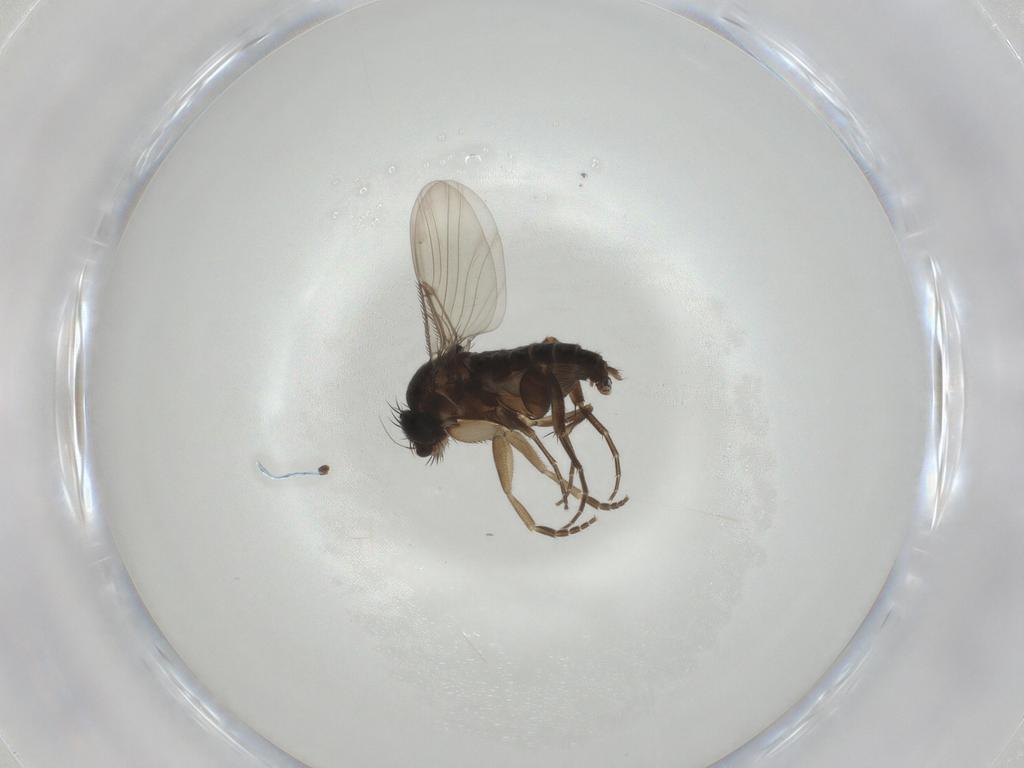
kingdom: Animalia
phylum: Arthropoda
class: Insecta
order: Diptera
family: Phoridae
